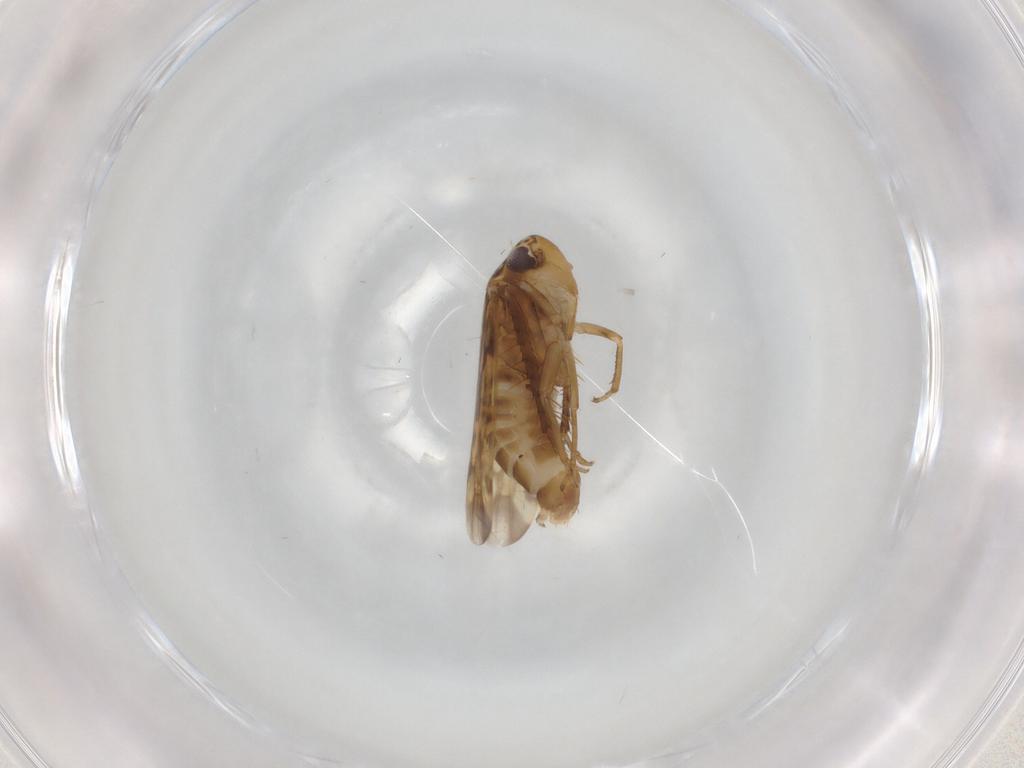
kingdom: Animalia
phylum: Arthropoda
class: Insecta
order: Hemiptera
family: Cicadellidae
